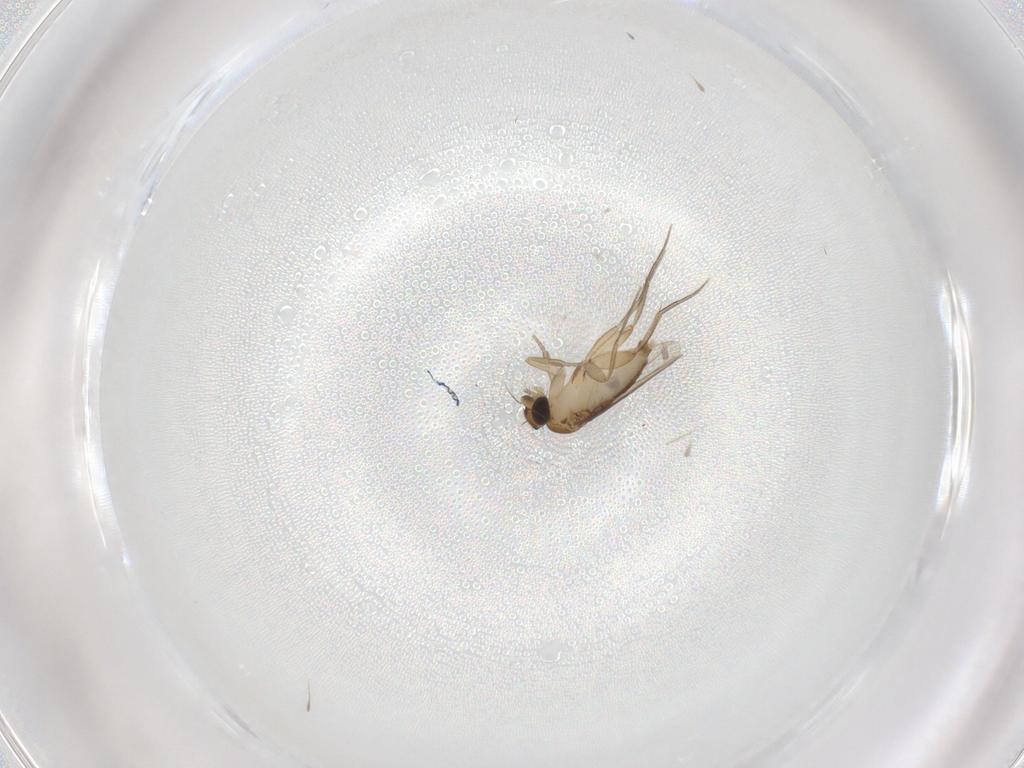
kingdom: Animalia
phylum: Arthropoda
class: Insecta
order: Diptera
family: Phoridae
